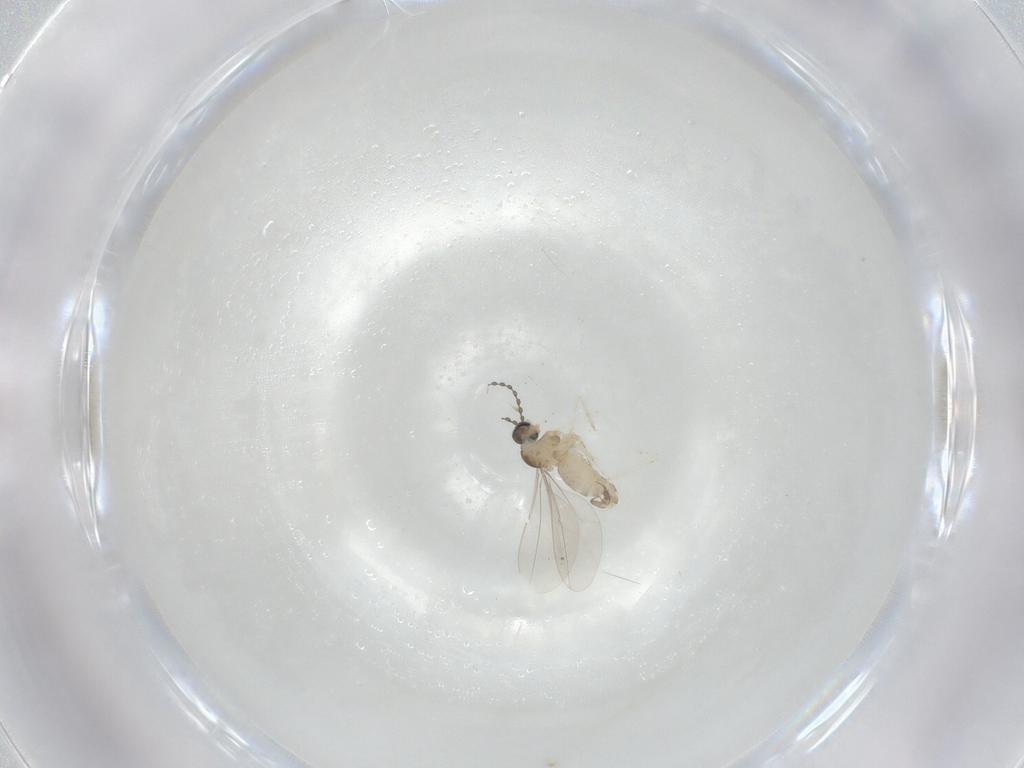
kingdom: Animalia
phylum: Arthropoda
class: Insecta
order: Diptera
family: Cecidomyiidae
